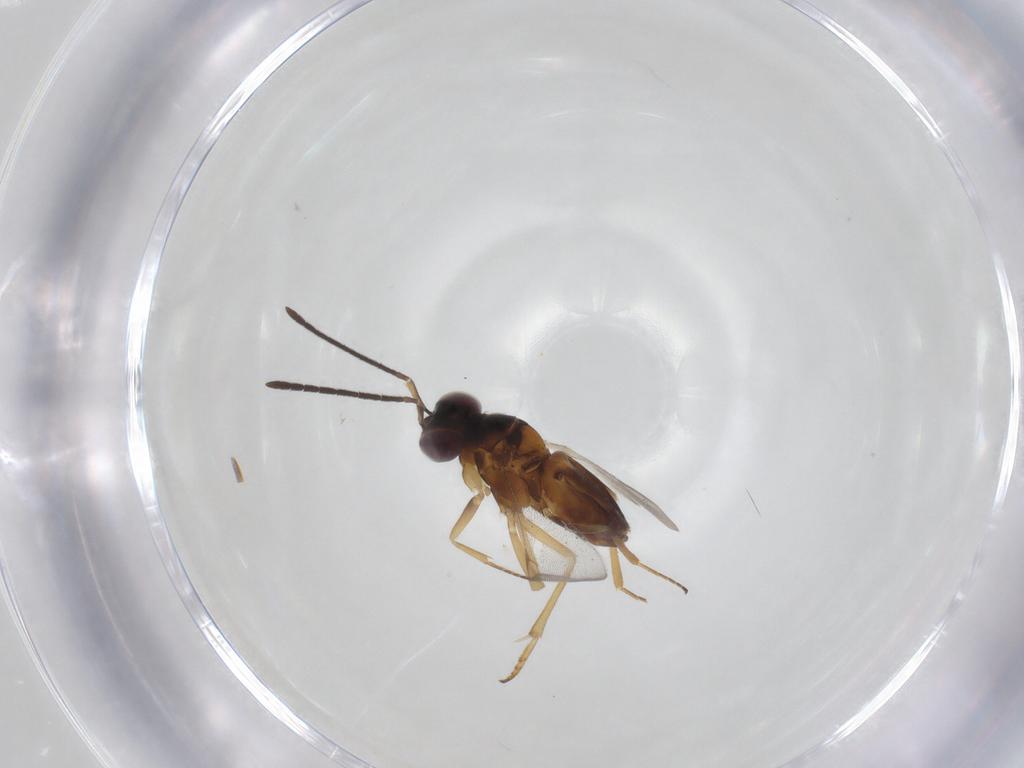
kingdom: Animalia
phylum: Arthropoda
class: Insecta
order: Hymenoptera
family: Encyrtidae
